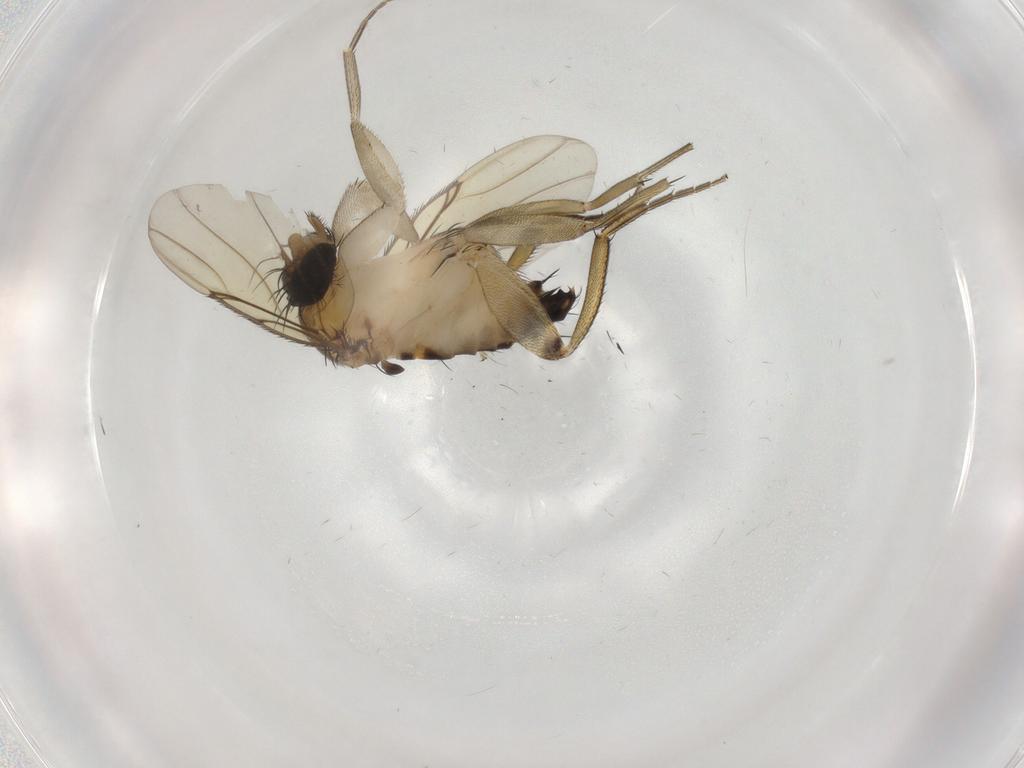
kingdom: Animalia
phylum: Arthropoda
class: Insecta
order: Diptera
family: Phoridae
